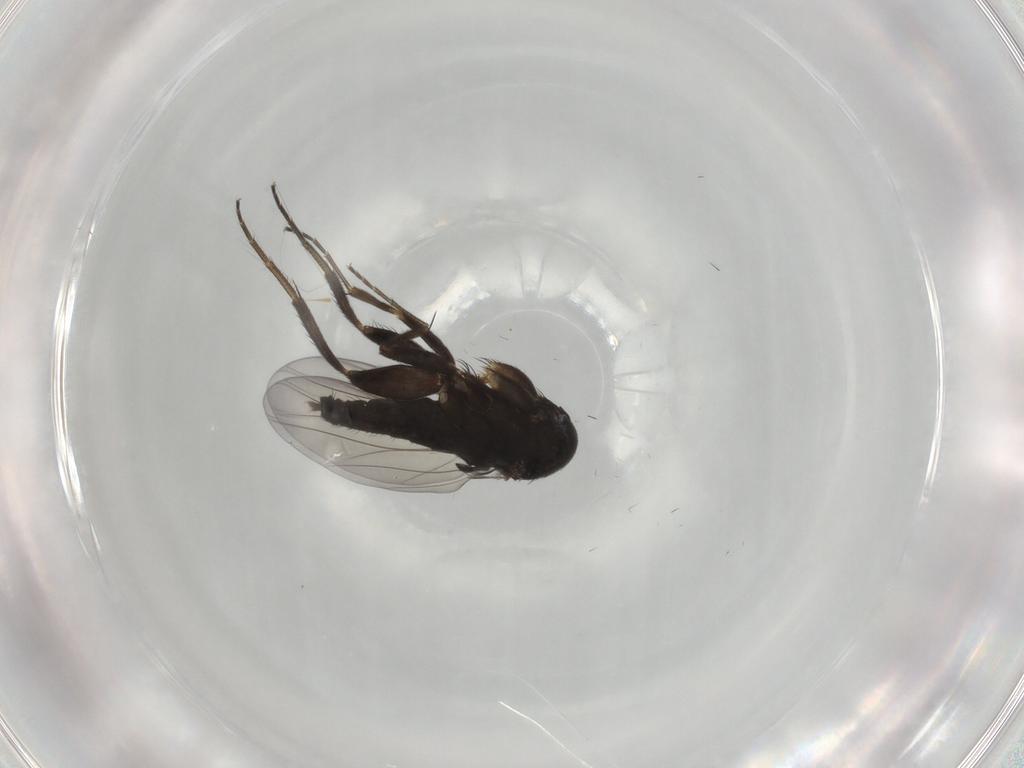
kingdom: Animalia
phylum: Arthropoda
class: Insecta
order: Diptera
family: Phoridae
